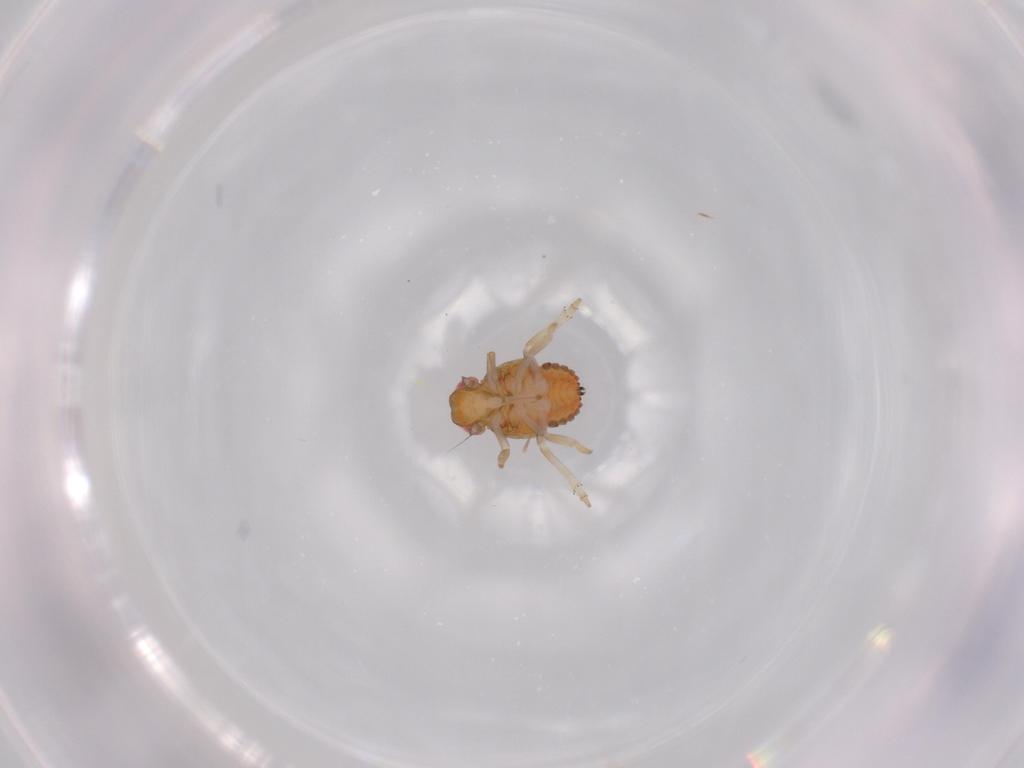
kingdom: Animalia
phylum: Arthropoda
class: Insecta
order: Hemiptera
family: Issidae
